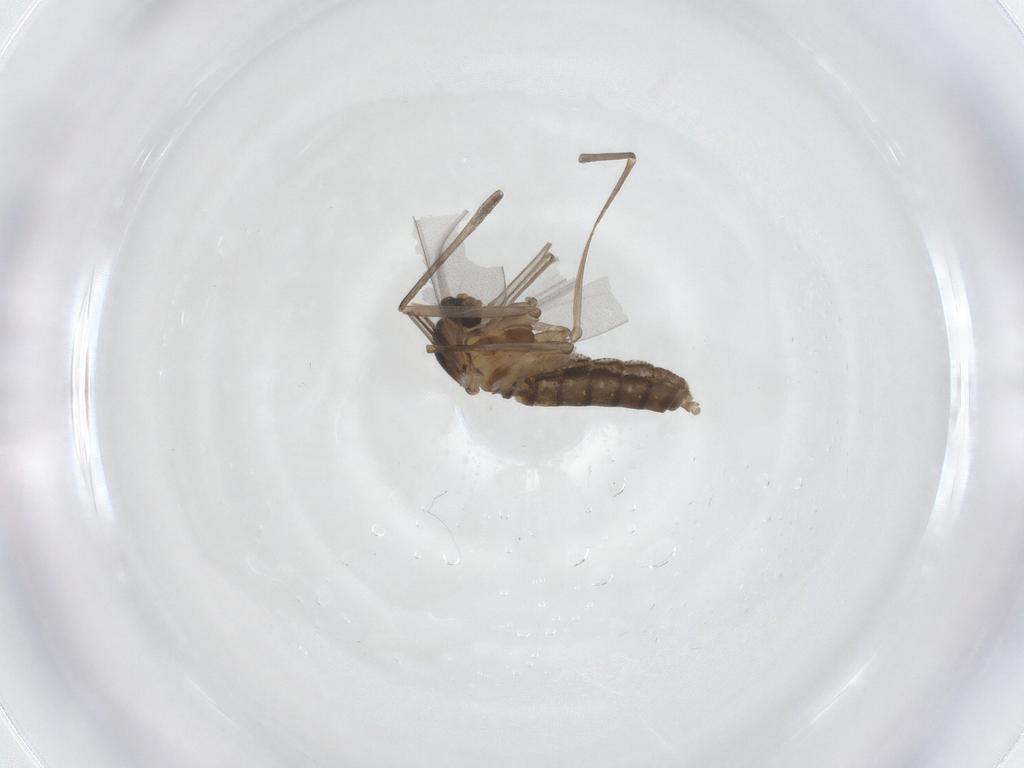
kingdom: Animalia
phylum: Arthropoda
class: Insecta
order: Diptera
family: Cecidomyiidae
